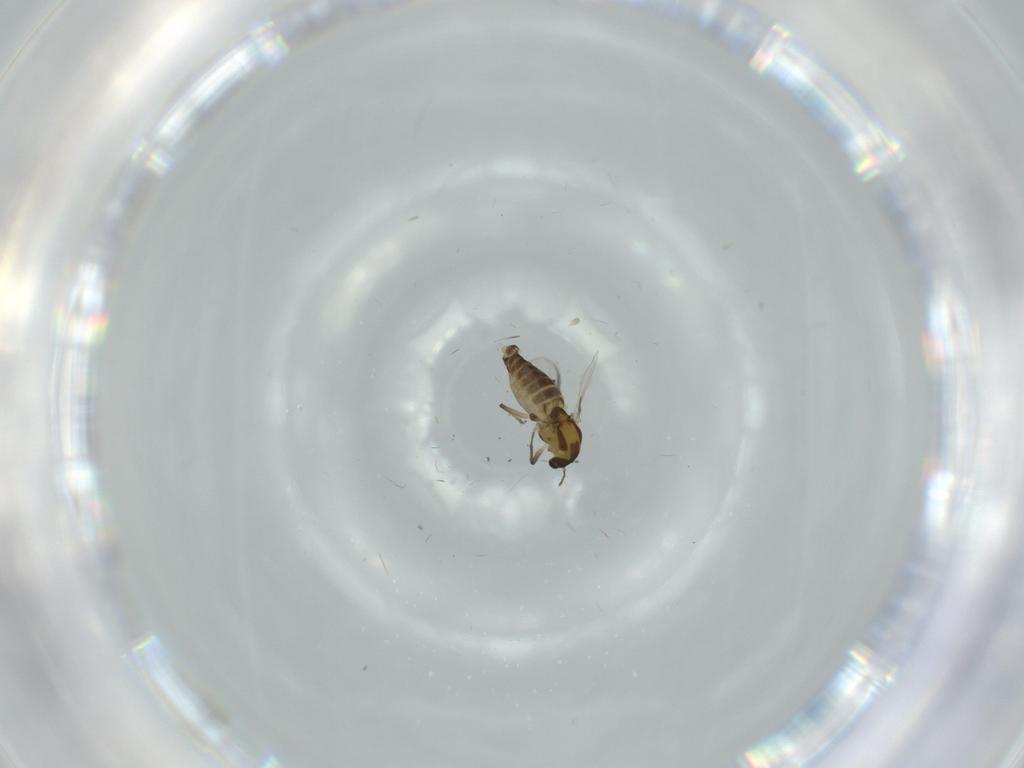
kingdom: Animalia
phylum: Arthropoda
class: Insecta
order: Diptera
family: Chironomidae
